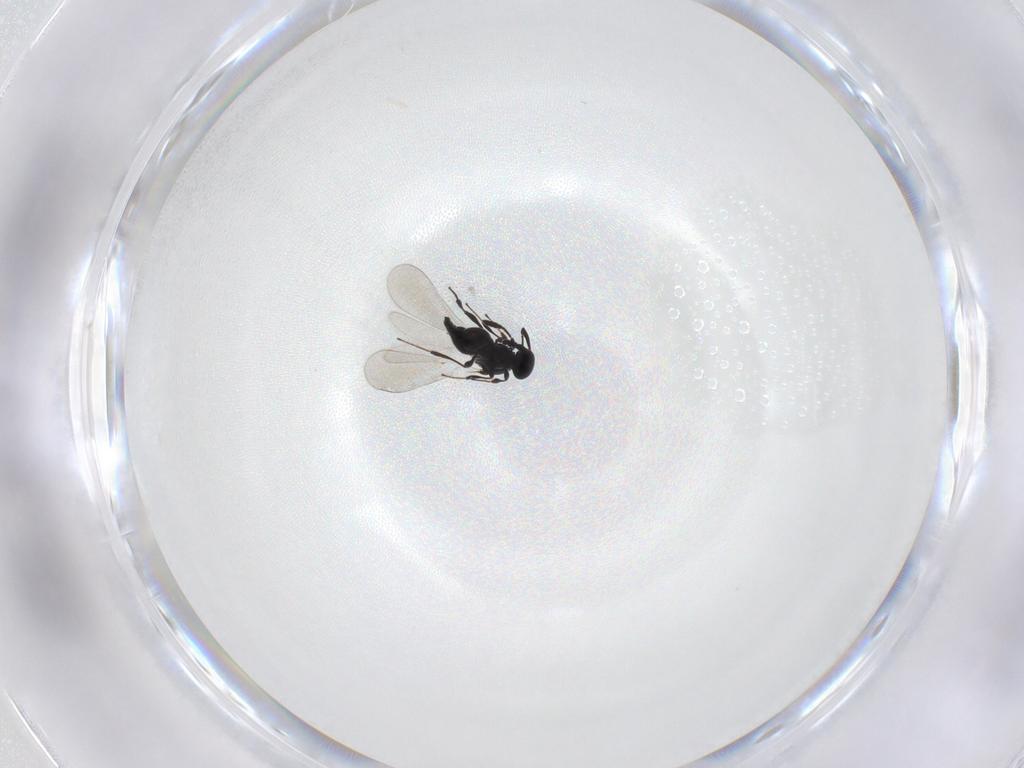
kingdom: Animalia
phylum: Arthropoda
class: Insecta
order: Hymenoptera
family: Platygastridae
